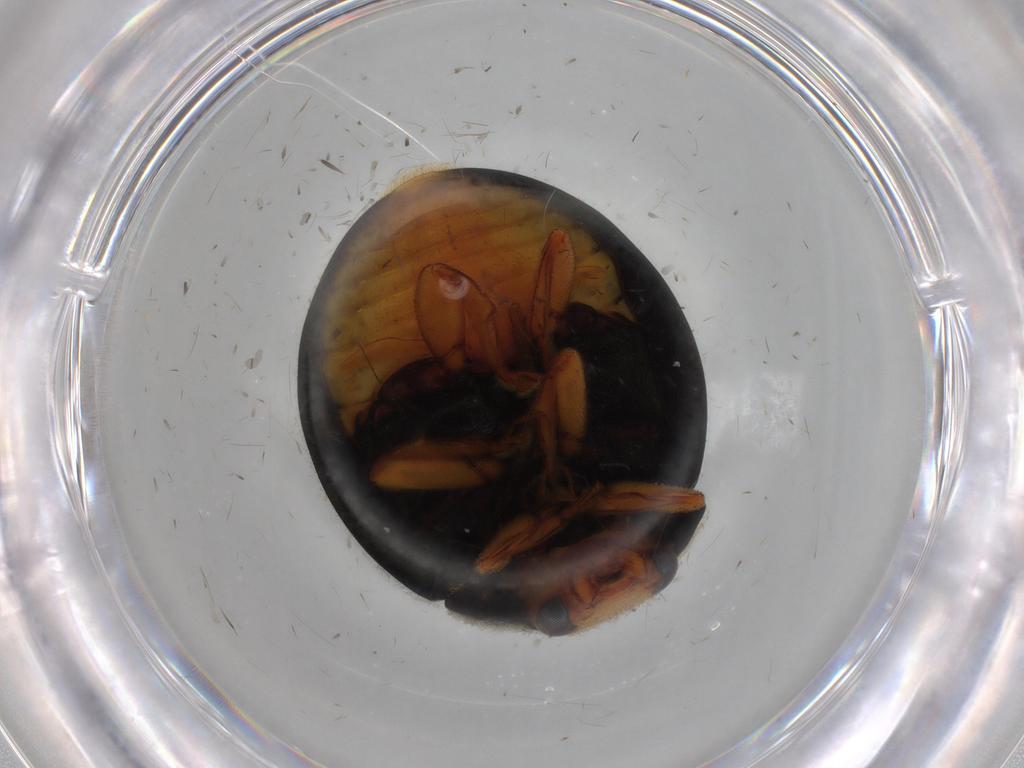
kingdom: Animalia
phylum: Arthropoda
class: Insecta
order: Coleoptera
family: Coccinellidae
